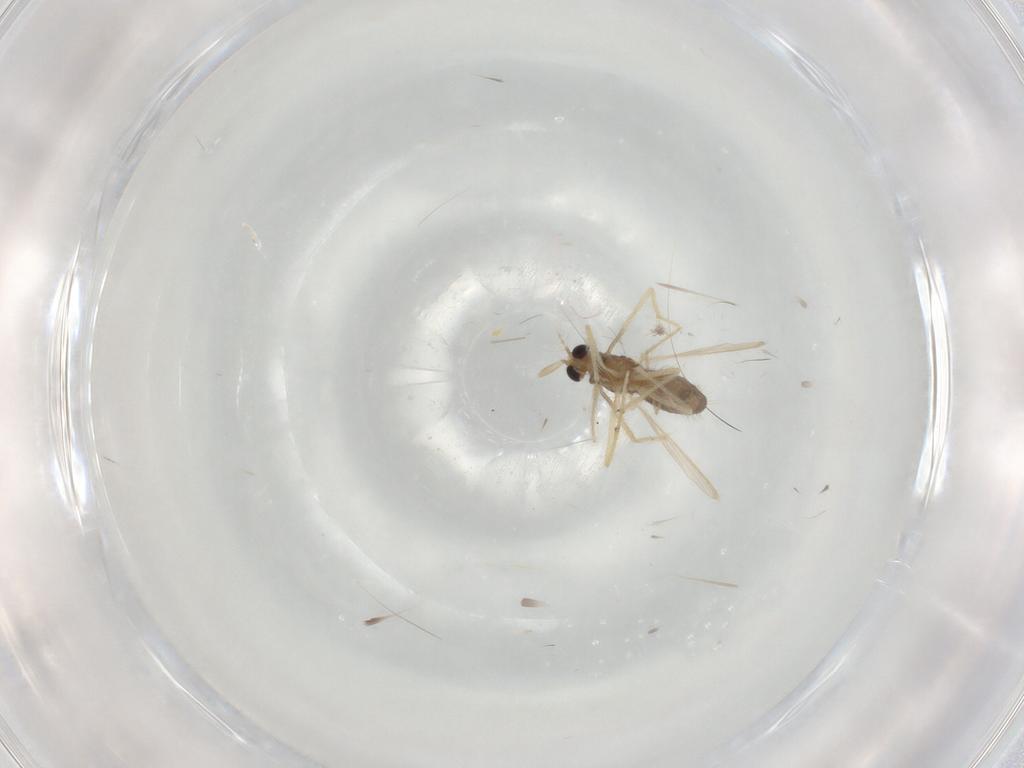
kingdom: Animalia
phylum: Arthropoda
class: Insecta
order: Diptera
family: Chironomidae
